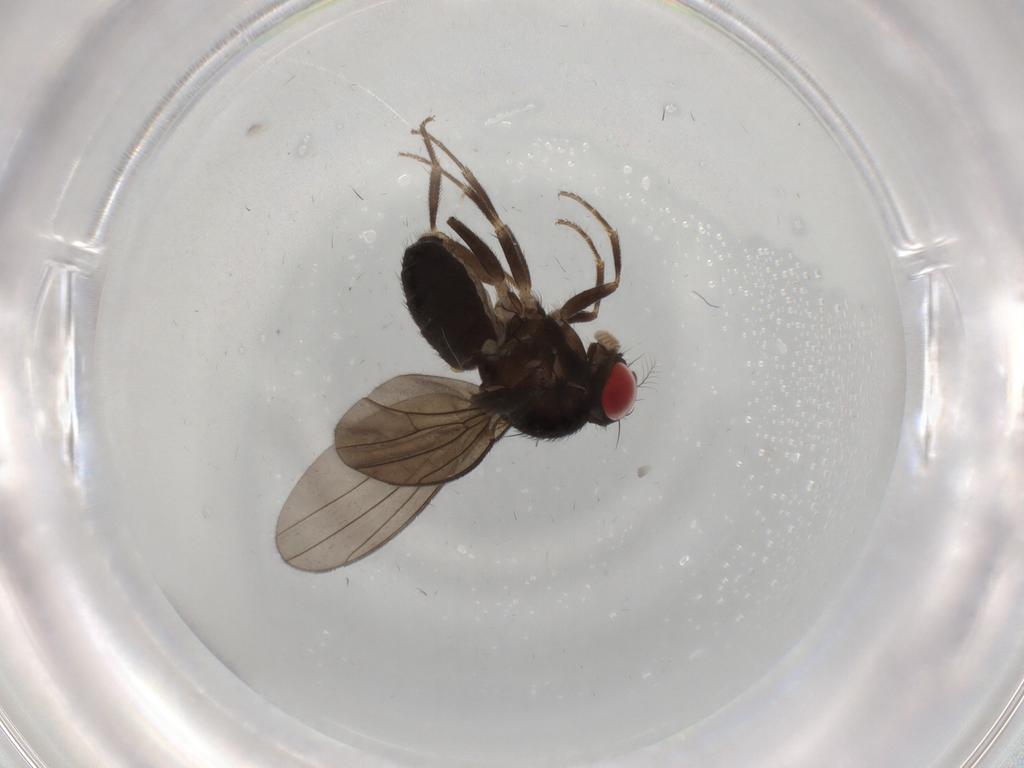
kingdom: Animalia
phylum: Arthropoda
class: Insecta
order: Diptera
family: Drosophilidae
